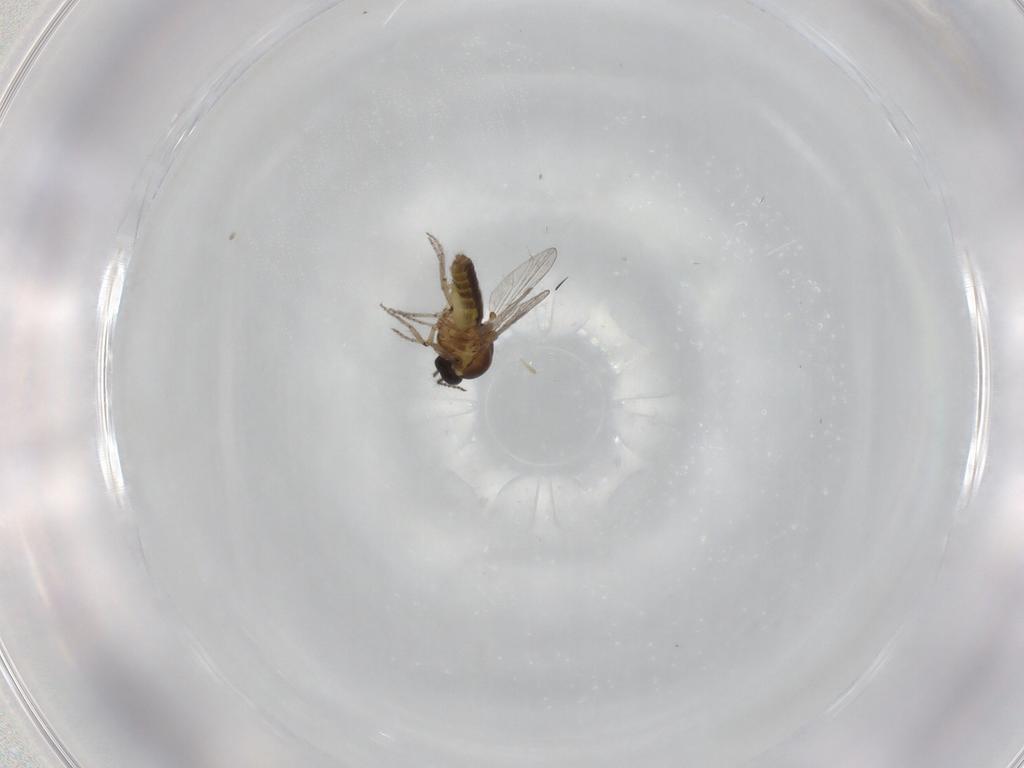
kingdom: Animalia
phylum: Arthropoda
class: Insecta
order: Diptera
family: Ceratopogonidae
